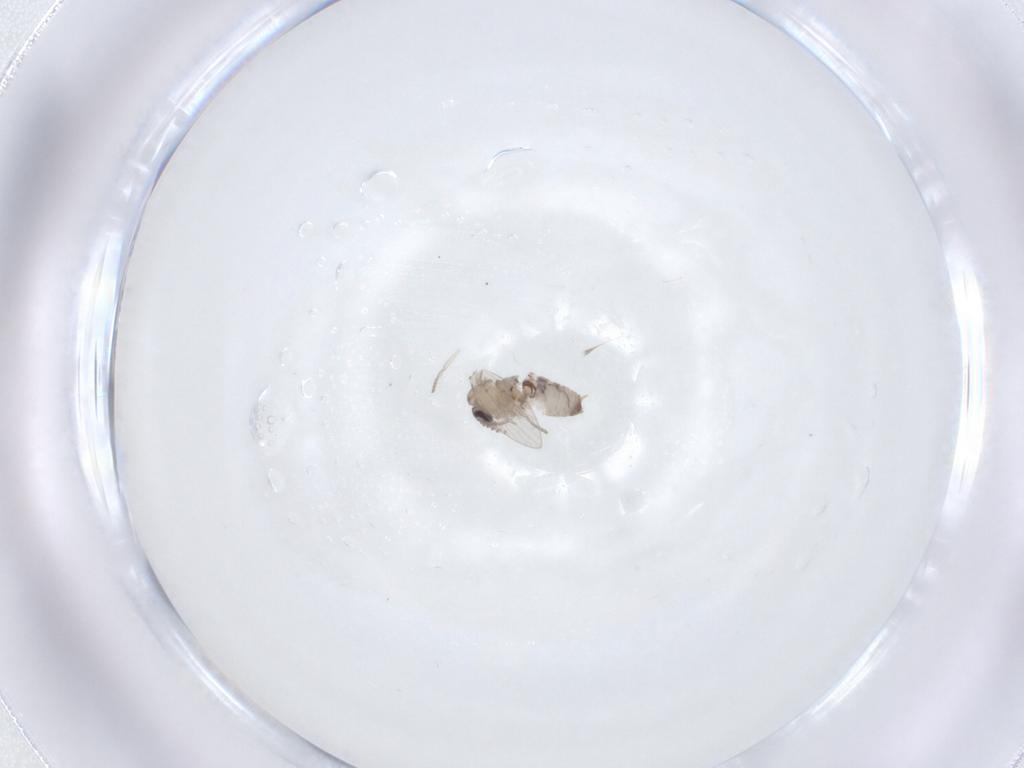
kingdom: Animalia
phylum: Arthropoda
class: Insecta
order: Diptera
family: Psychodidae
